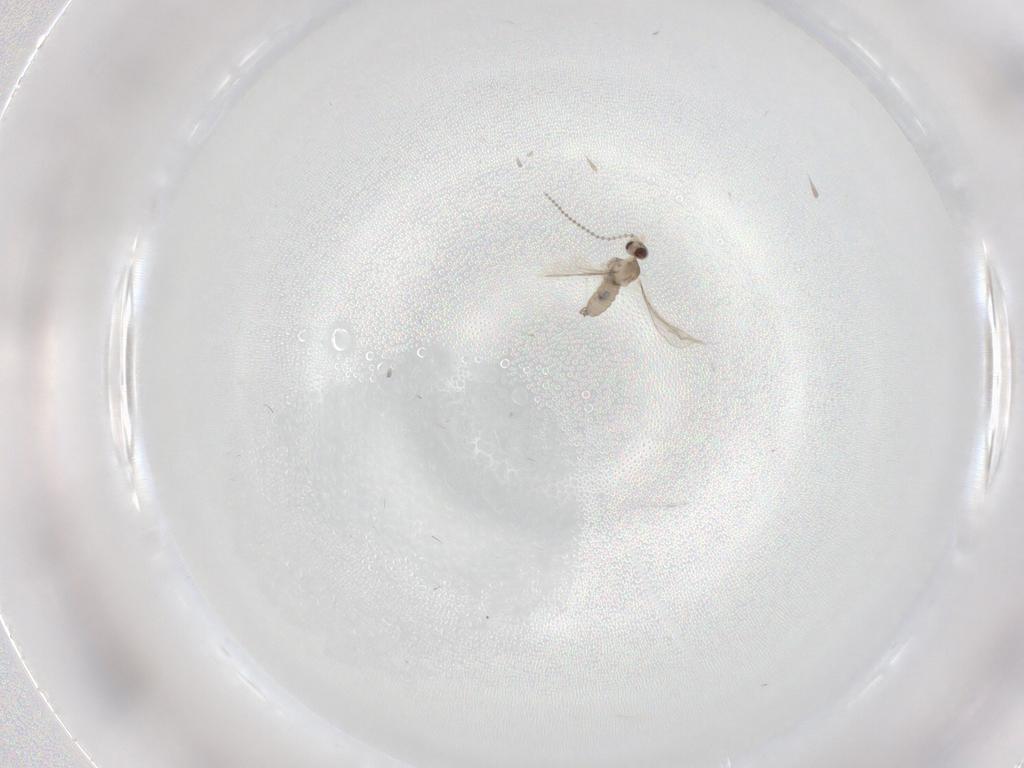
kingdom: Animalia
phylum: Arthropoda
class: Insecta
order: Diptera
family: Cecidomyiidae
